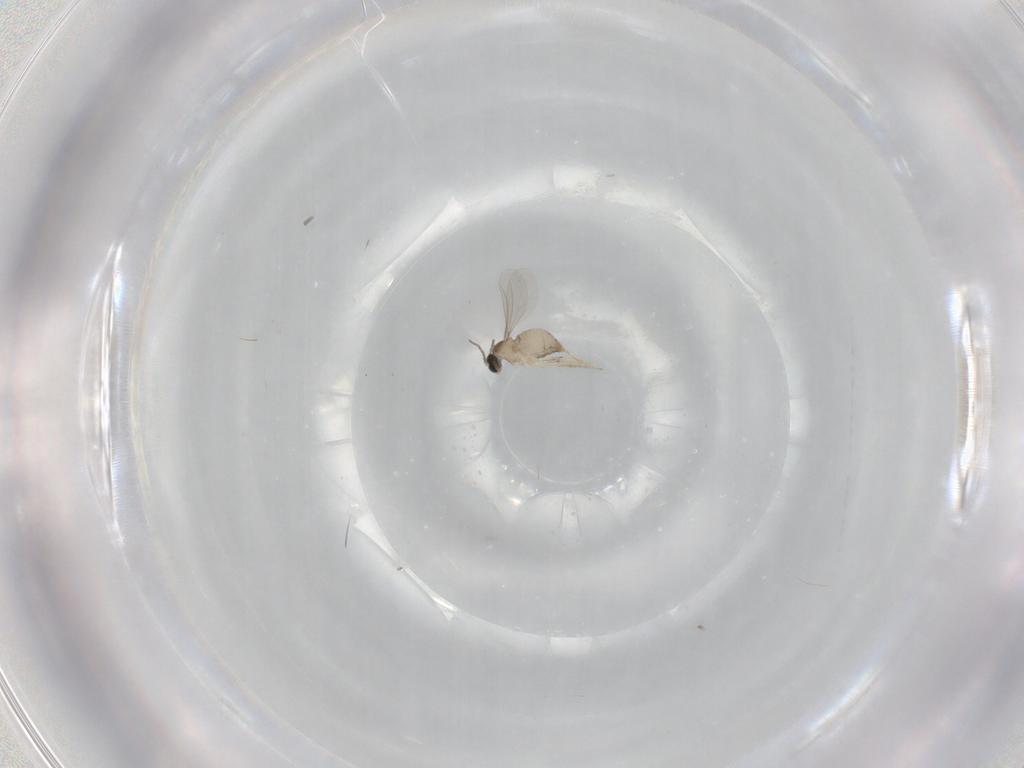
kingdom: Animalia
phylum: Arthropoda
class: Insecta
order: Diptera
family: Cecidomyiidae
